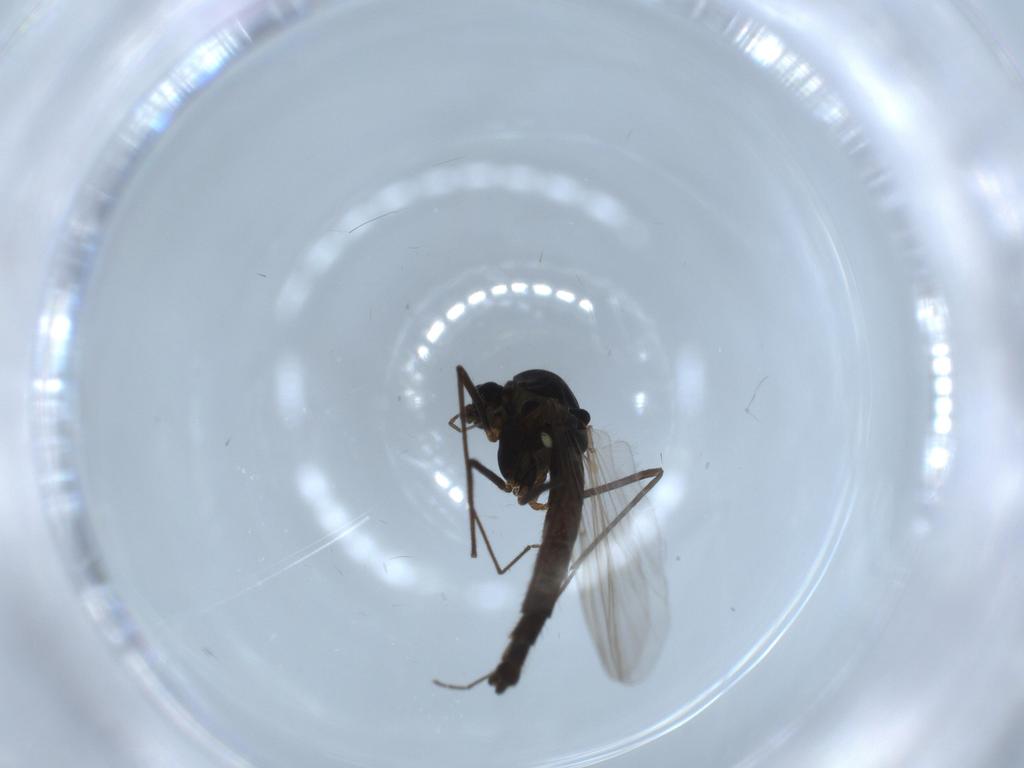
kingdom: Animalia
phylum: Arthropoda
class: Insecta
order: Diptera
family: Chironomidae
